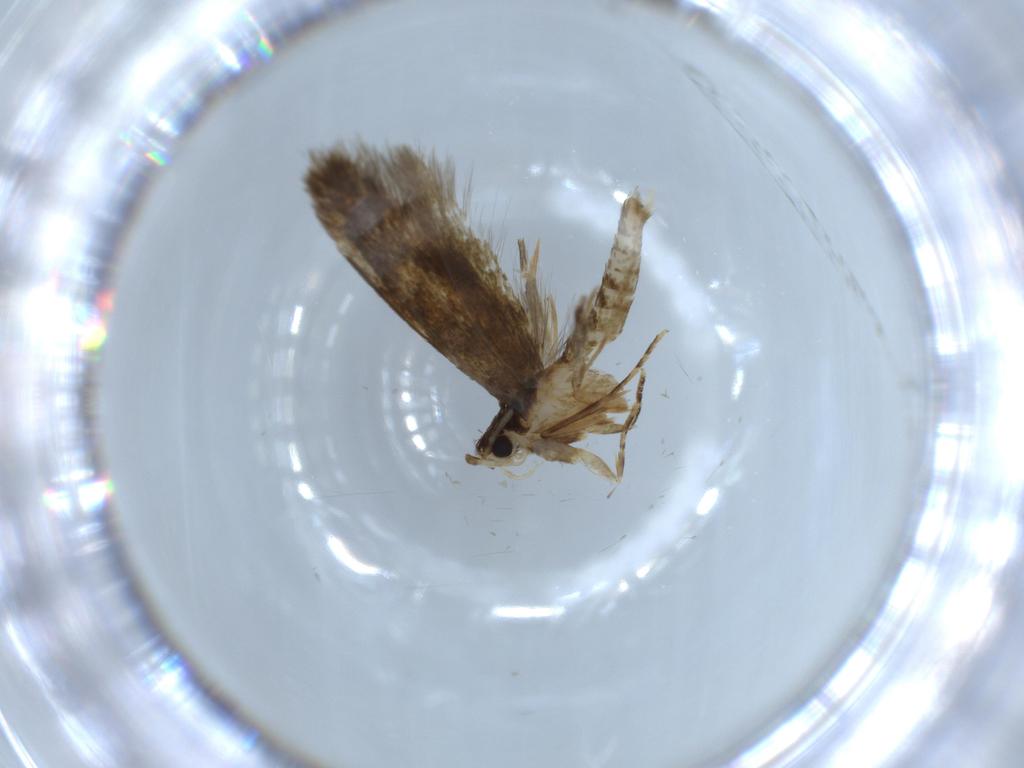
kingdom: Animalia
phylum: Arthropoda
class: Insecta
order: Lepidoptera
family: Tineidae
